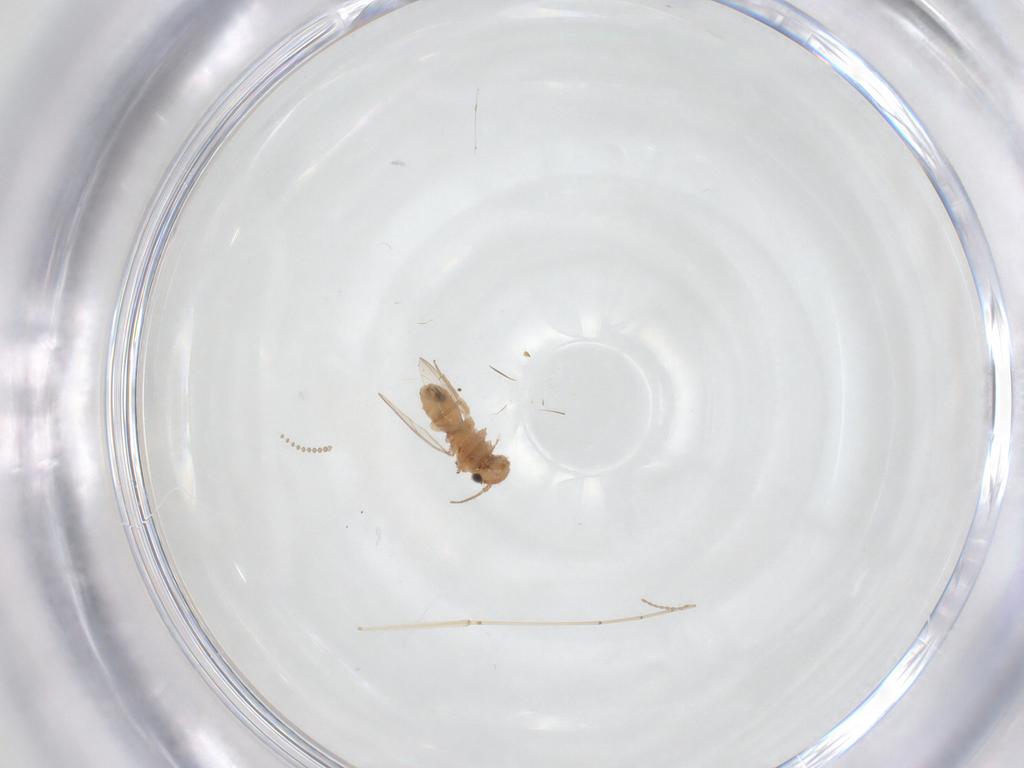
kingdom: Animalia
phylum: Arthropoda
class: Insecta
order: Psocodea
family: Ectopsocidae
